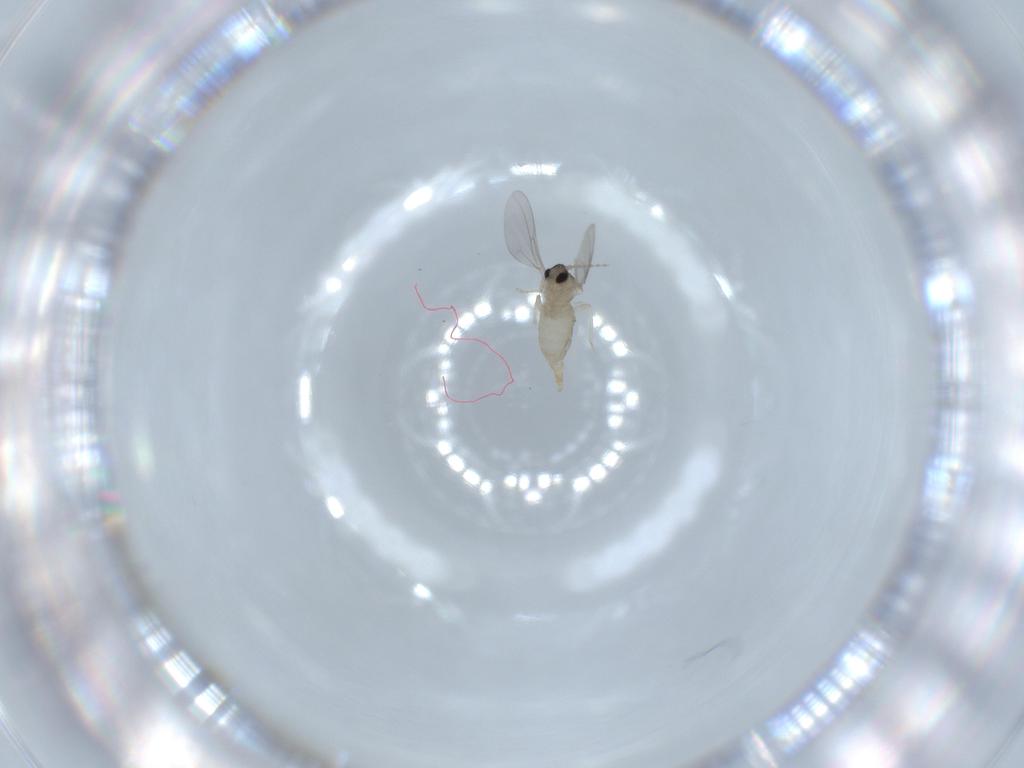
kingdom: Animalia
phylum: Arthropoda
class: Insecta
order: Diptera
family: Cecidomyiidae
